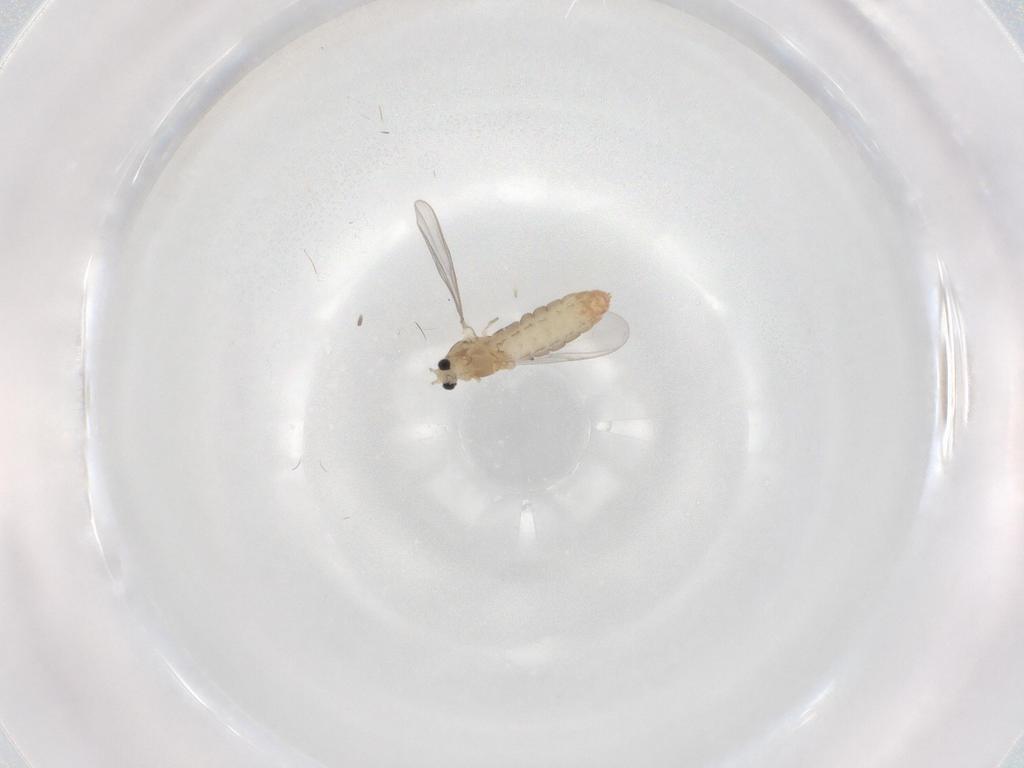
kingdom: Animalia
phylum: Arthropoda
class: Insecta
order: Diptera
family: Chironomidae
